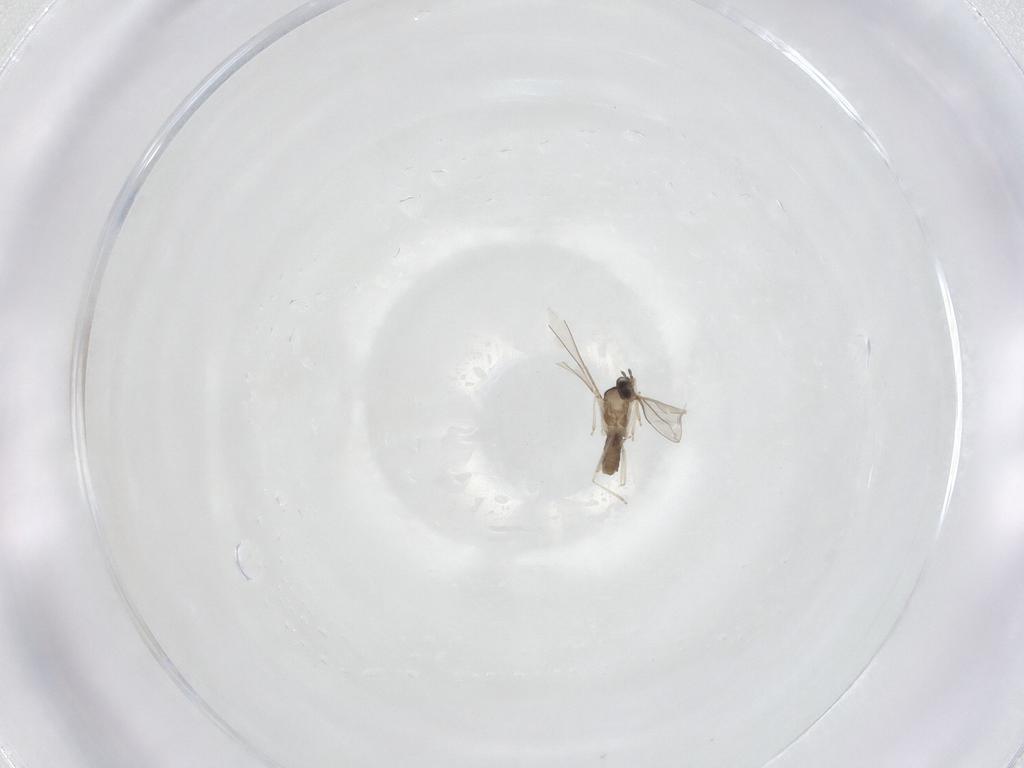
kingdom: Animalia
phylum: Arthropoda
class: Insecta
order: Diptera
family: Cecidomyiidae
